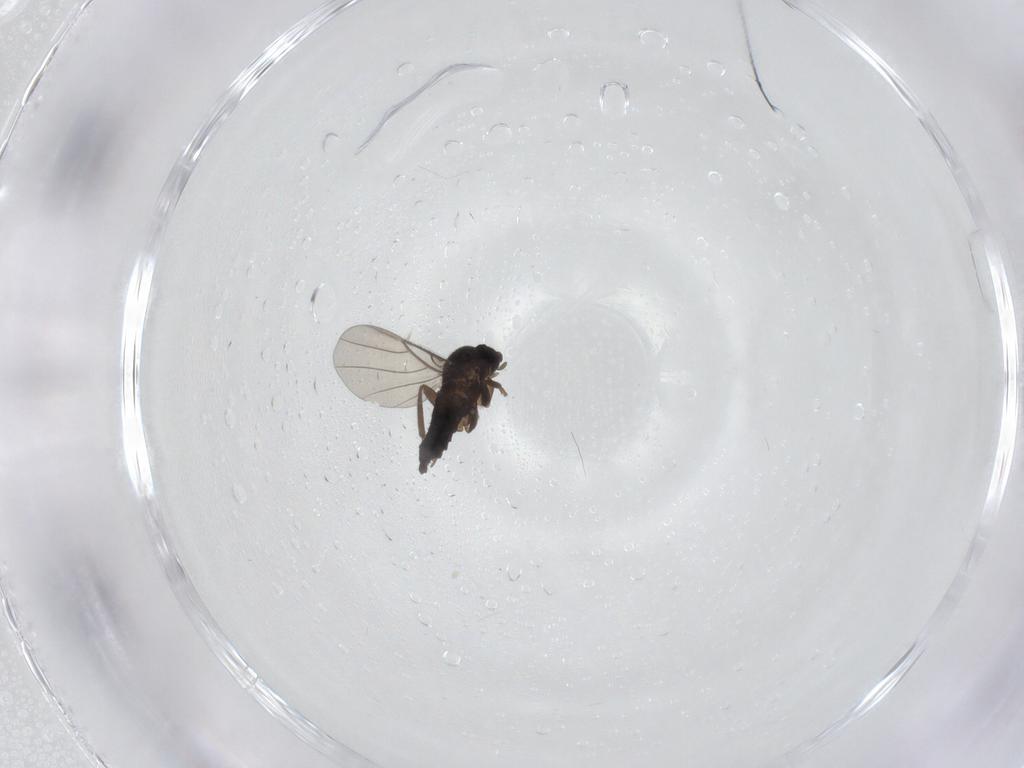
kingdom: Animalia
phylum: Arthropoda
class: Insecta
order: Diptera
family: Phoridae
